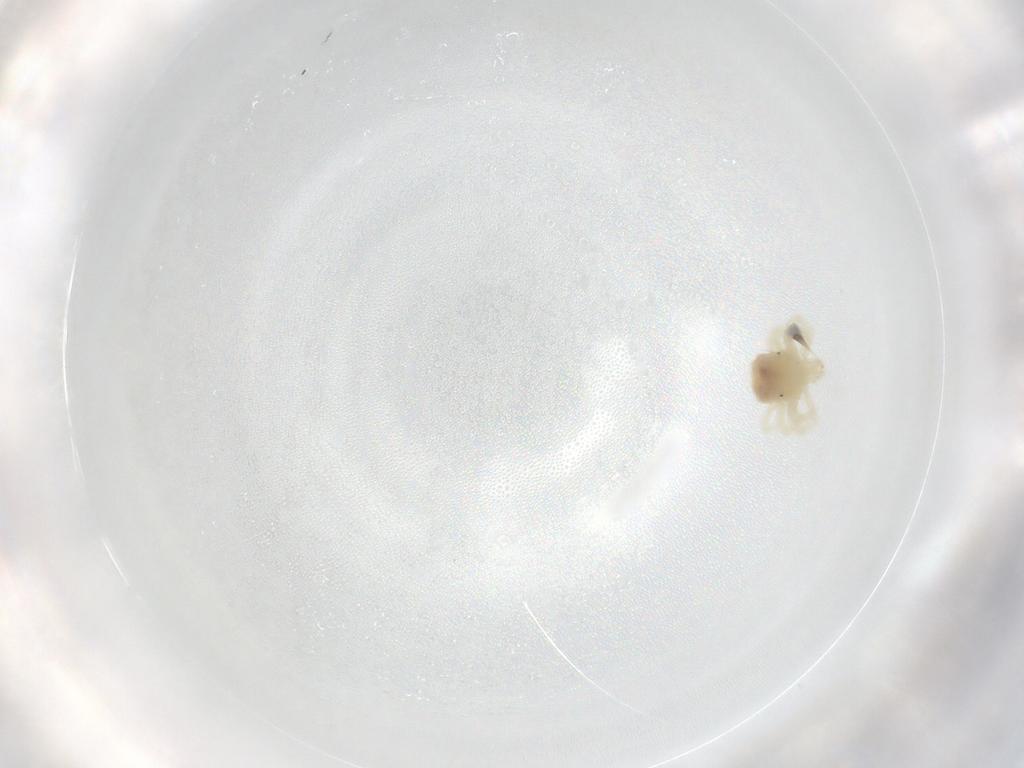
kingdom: Animalia
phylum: Arthropoda
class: Arachnida
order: Trombidiformes
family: Anystidae
